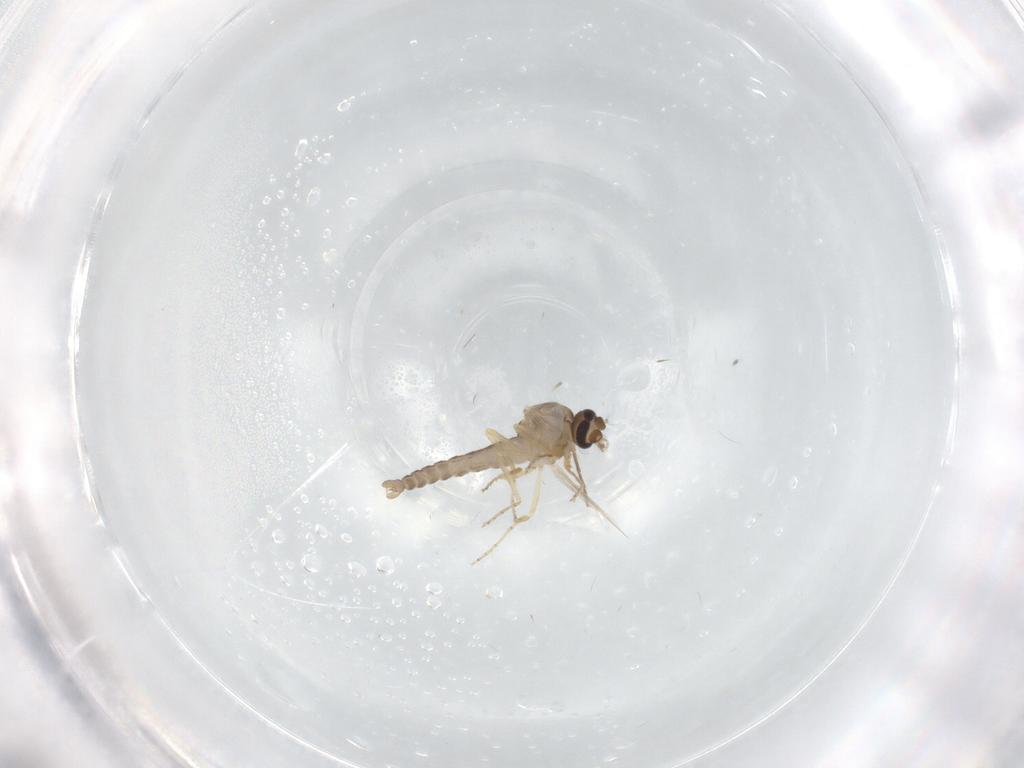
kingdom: Animalia
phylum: Arthropoda
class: Insecta
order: Diptera
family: Ceratopogonidae
